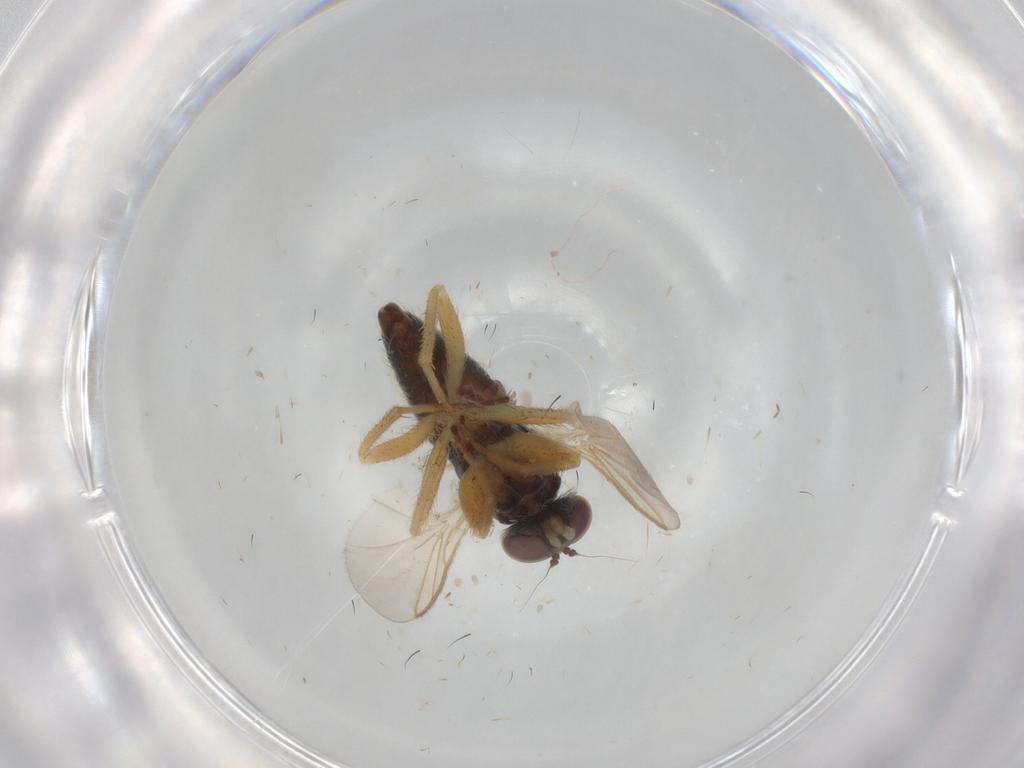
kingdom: Animalia
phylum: Arthropoda
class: Insecta
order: Diptera
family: Dolichopodidae
